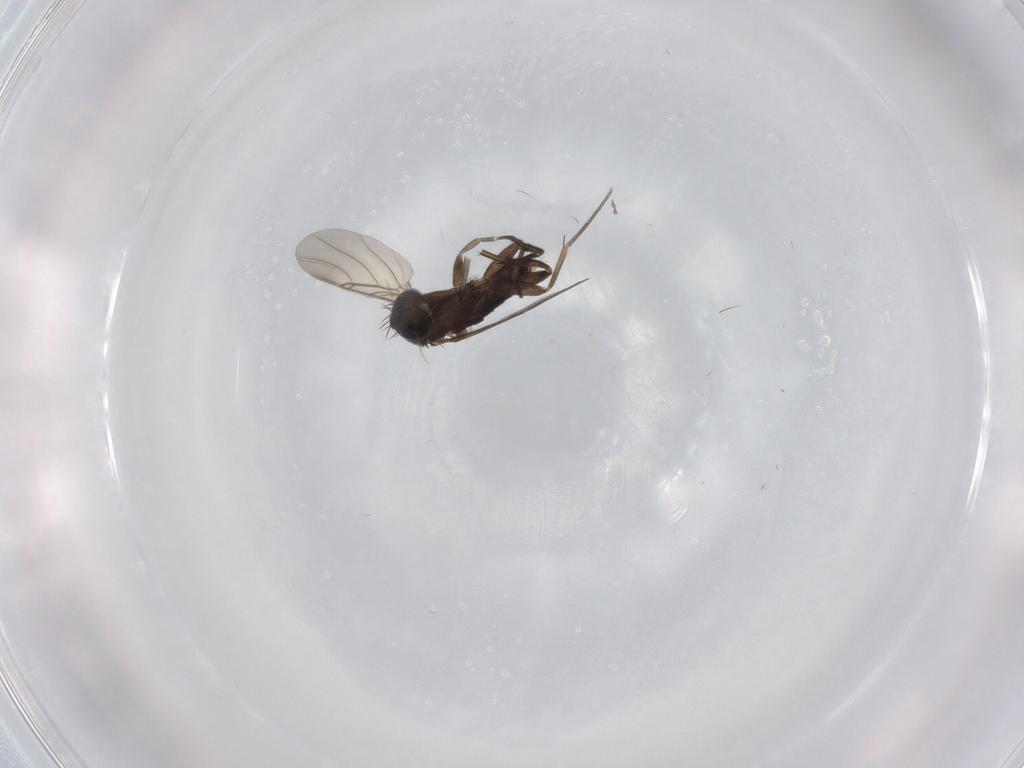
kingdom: Animalia
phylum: Arthropoda
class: Insecta
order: Diptera
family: Phoridae
